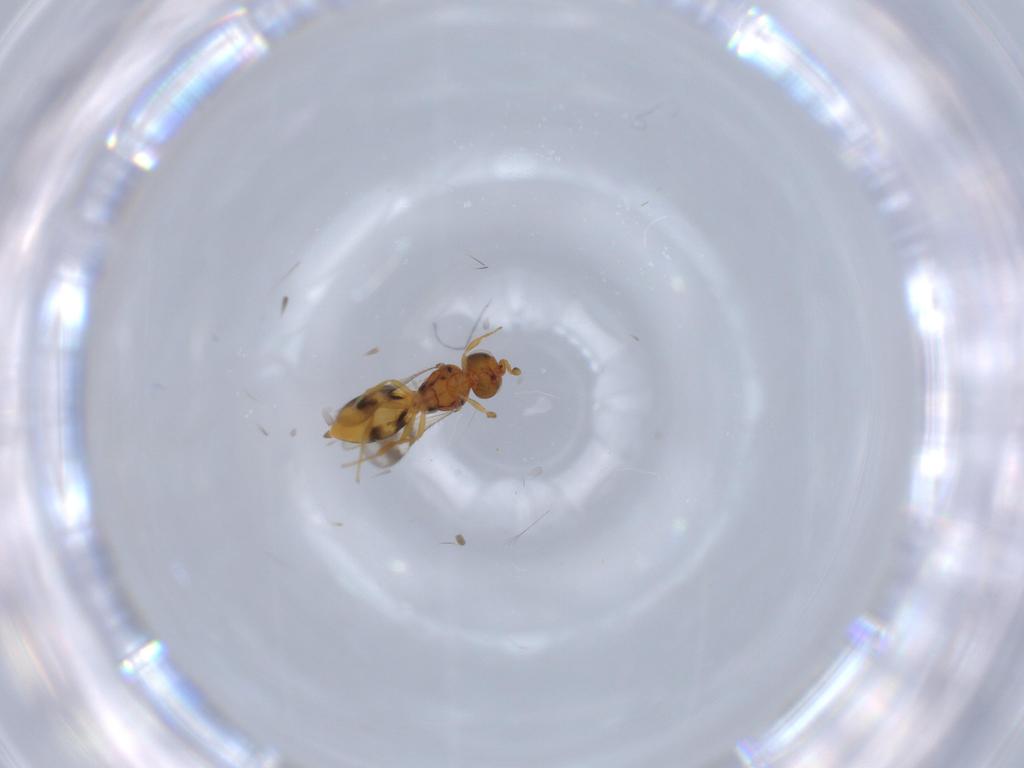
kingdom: Animalia
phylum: Arthropoda
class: Insecta
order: Hymenoptera
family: Scelionidae
